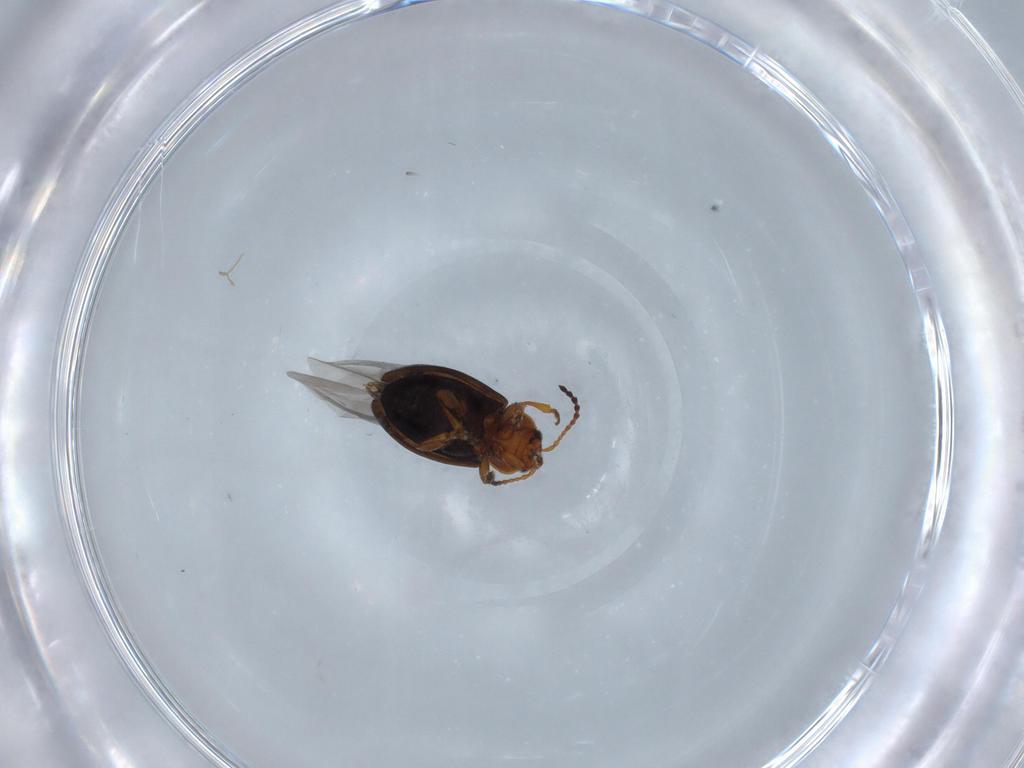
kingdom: Animalia
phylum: Arthropoda
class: Insecta
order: Coleoptera
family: Chrysomelidae
